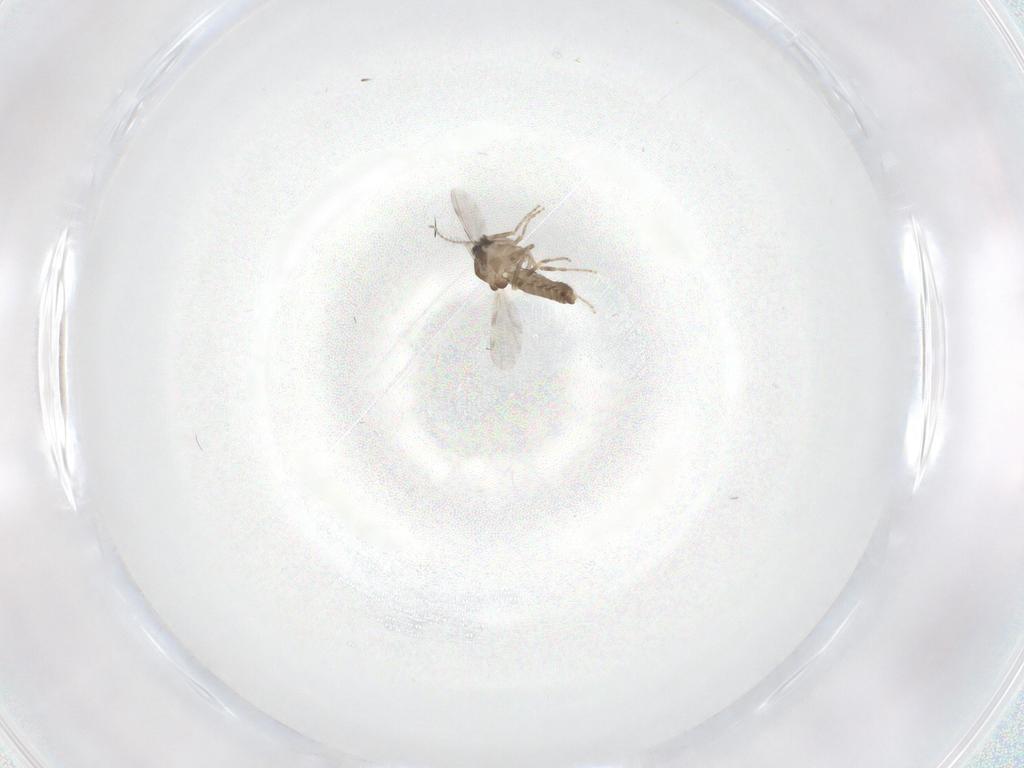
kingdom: Animalia
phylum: Arthropoda
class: Insecta
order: Diptera
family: Ceratopogonidae
